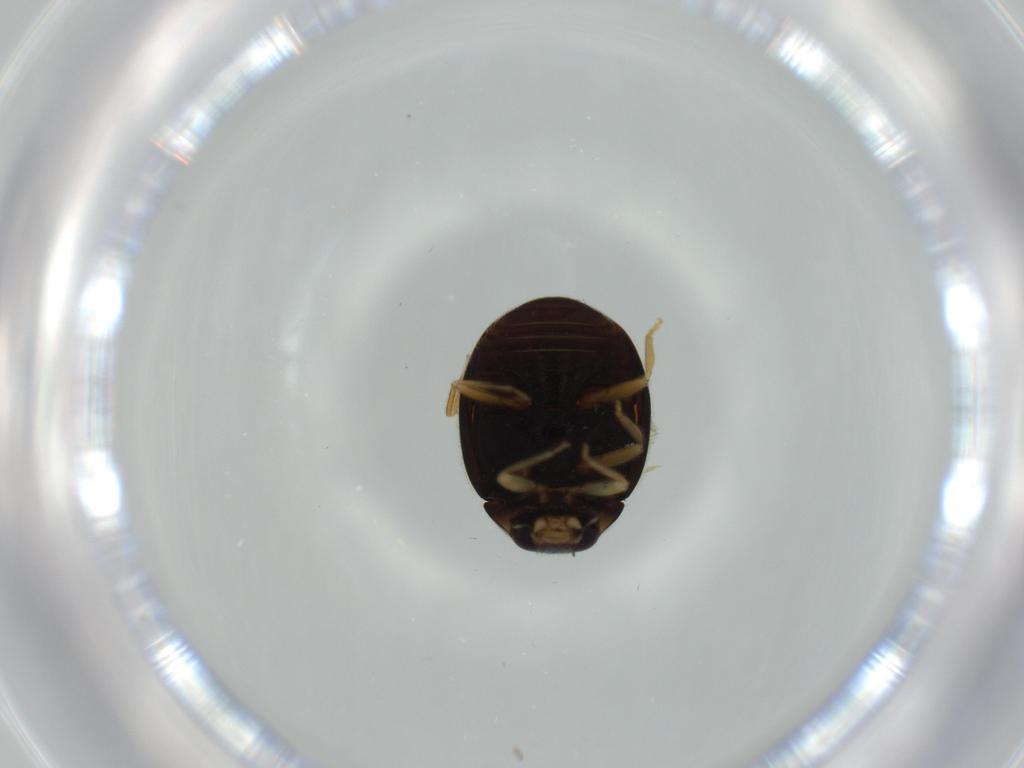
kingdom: Animalia
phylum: Arthropoda
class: Insecta
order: Coleoptera
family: Coccinellidae
